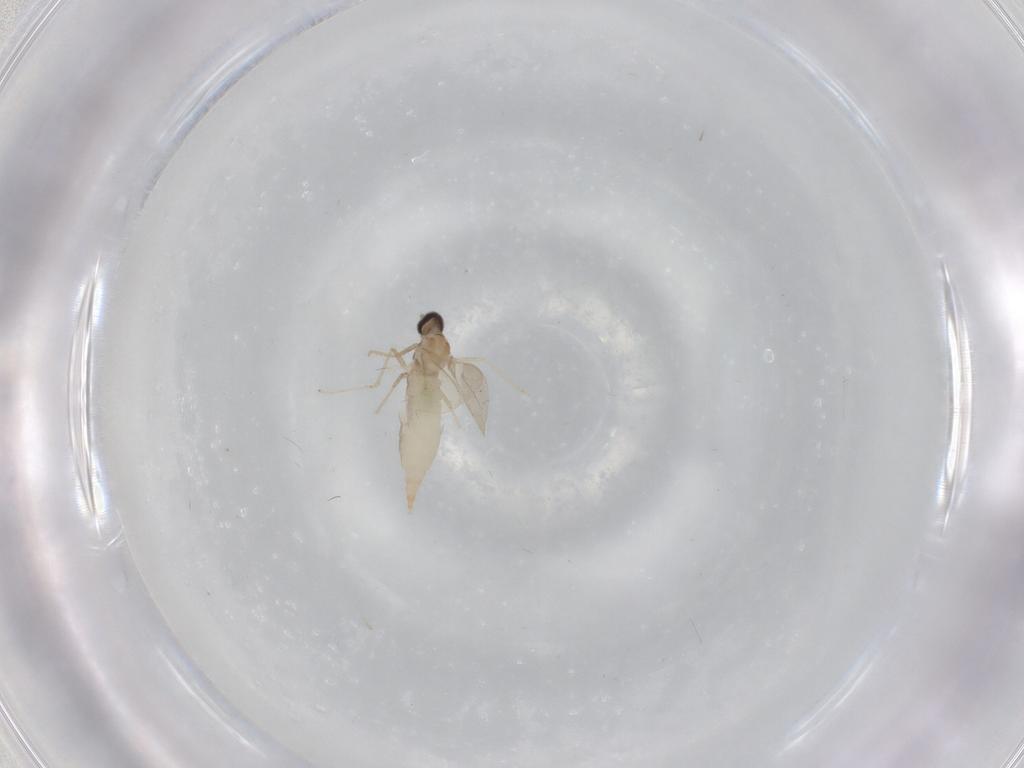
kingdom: Animalia
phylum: Arthropoda
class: Insecta
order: Diptera
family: Cecidomyiidae
